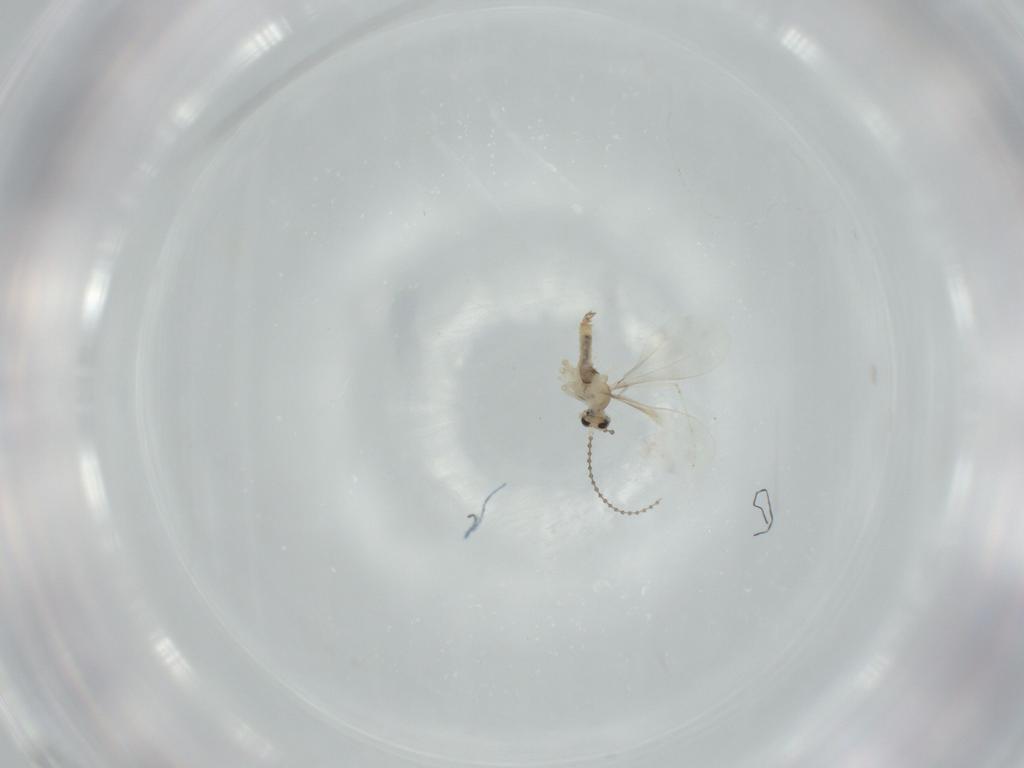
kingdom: Animalia
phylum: Arthropoda
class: Insecta
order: Diptera
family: Cecidomyiidae
